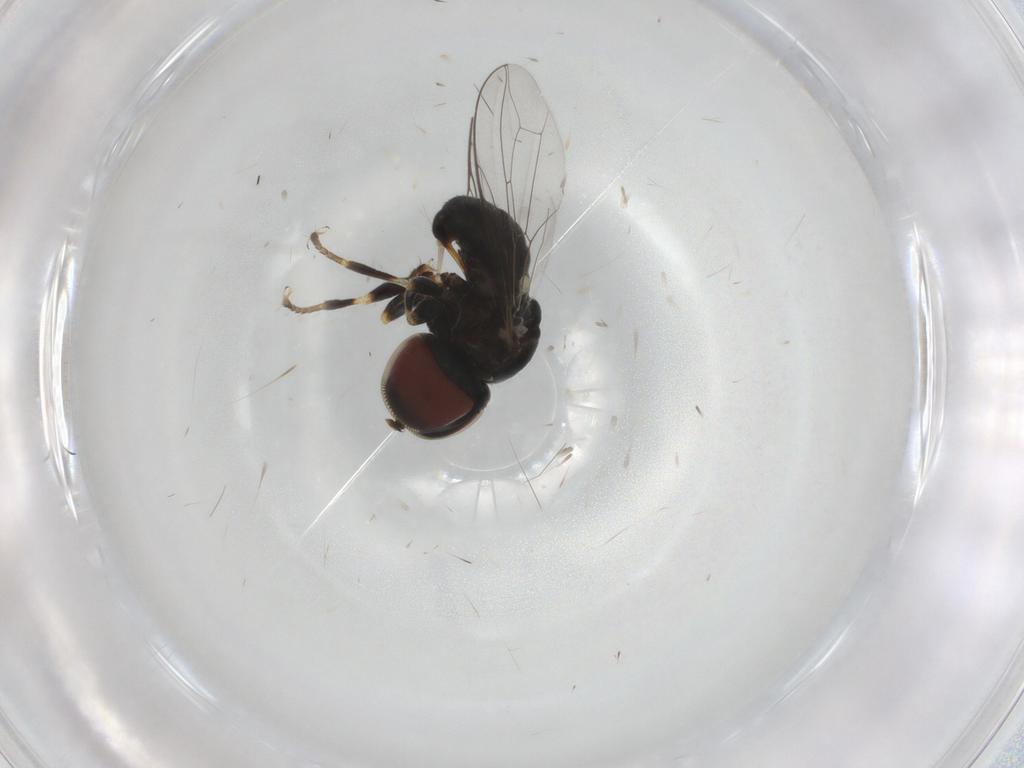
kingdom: Animalia
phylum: Arthropoda
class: Insecta
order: Diptera
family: Pipunculidae
